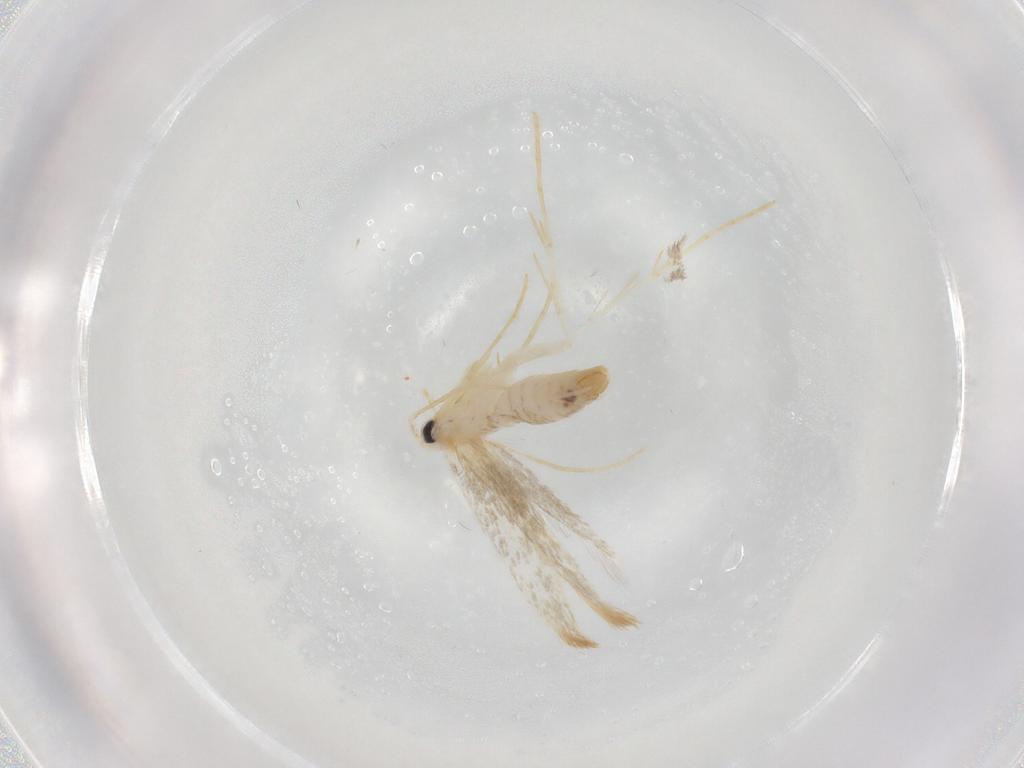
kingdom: Animalia
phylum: Arthropoda
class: Insecta
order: Lepidoptera
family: Tineidae
